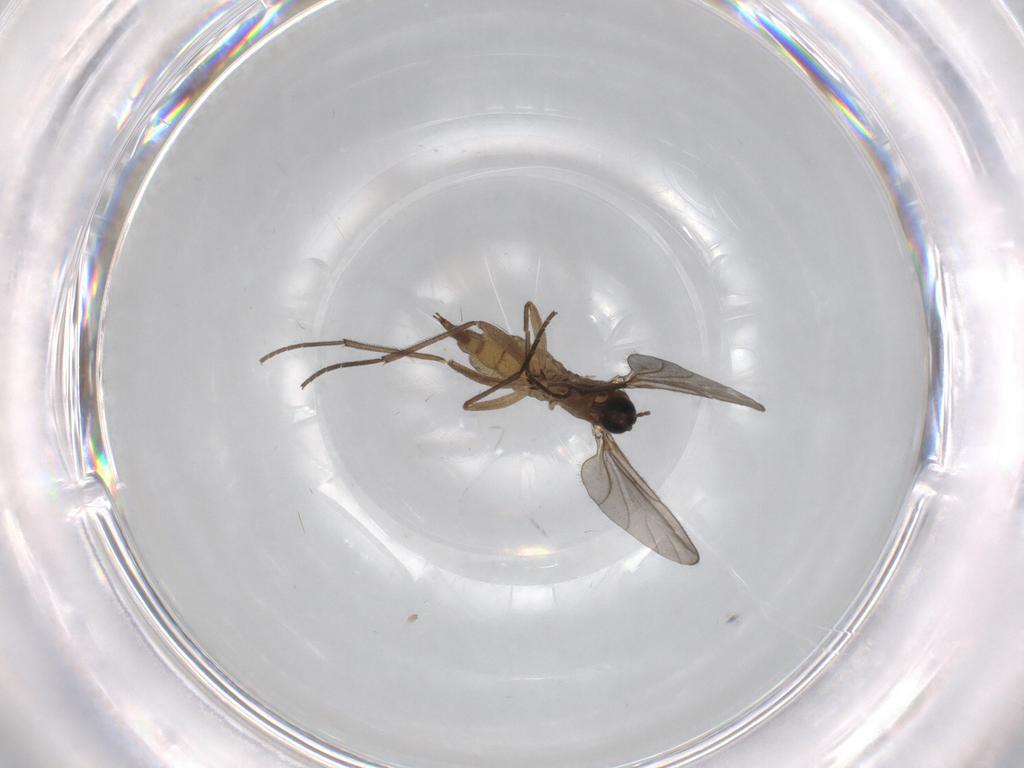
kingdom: Animalia
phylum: Arthropoda
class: Insecta
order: Diptera
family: Sciaridae
